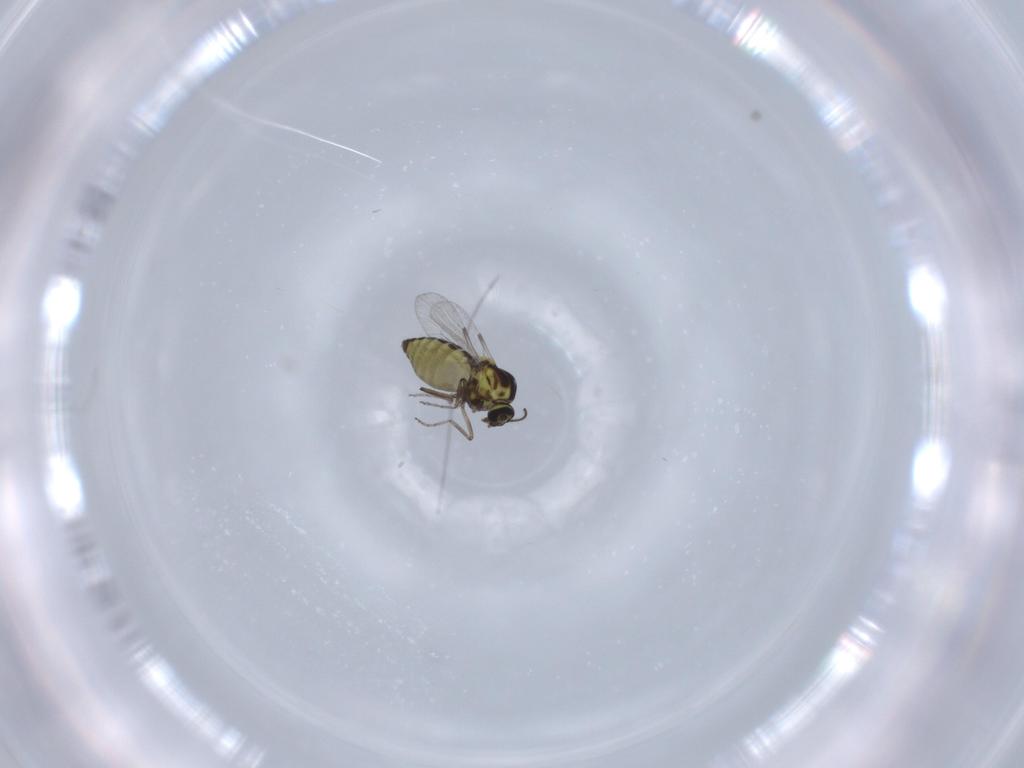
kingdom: Animalia
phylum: Arthropoda
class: Insecta
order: Diptera
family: Ceratopogonidae
